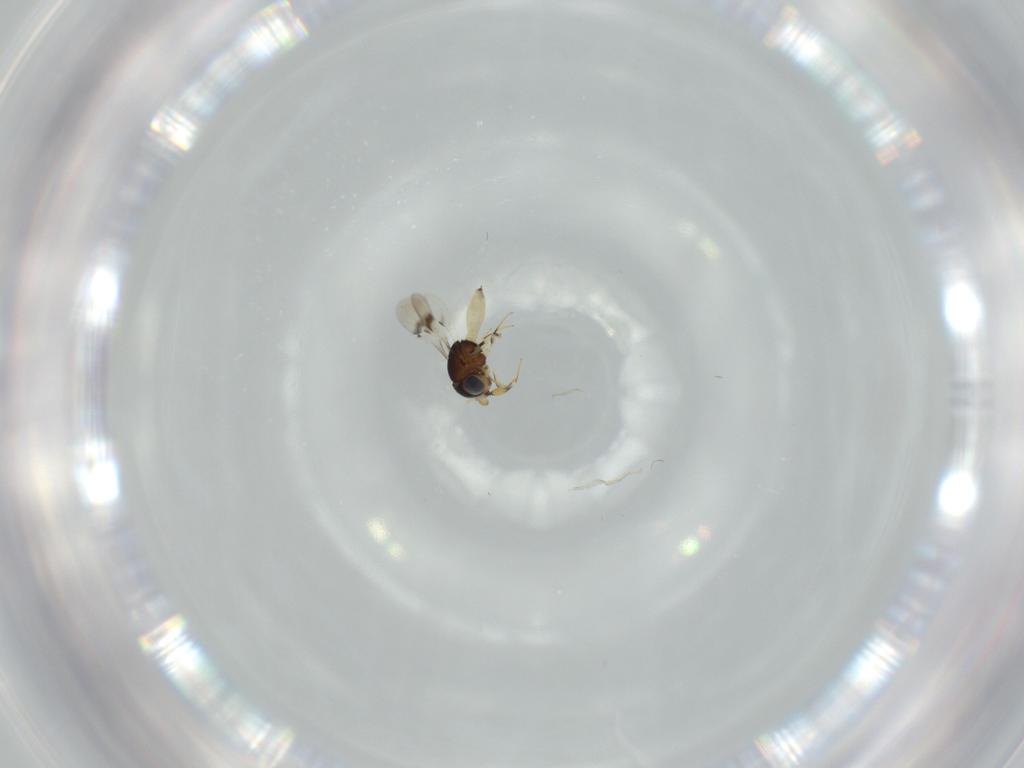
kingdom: Animalia
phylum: Arthropoda
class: Insecta
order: Hymenoptera
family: Scelionidae
